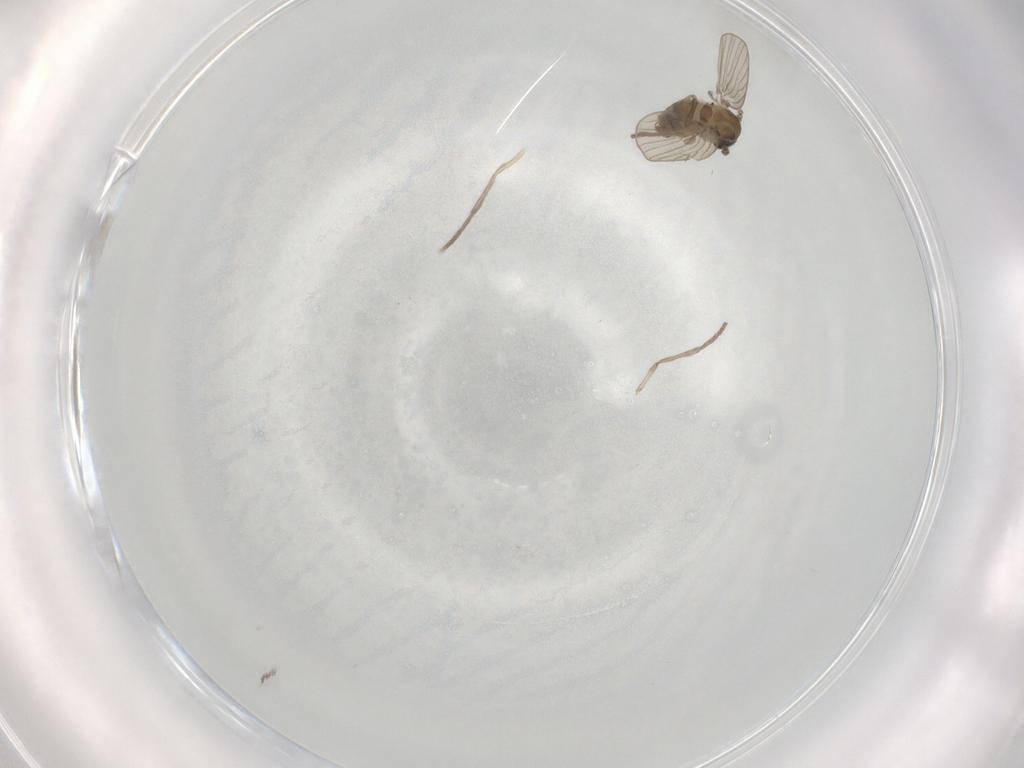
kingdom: Animalia
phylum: Arthropoda
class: Insecta
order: Diptera
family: Psychodidae
